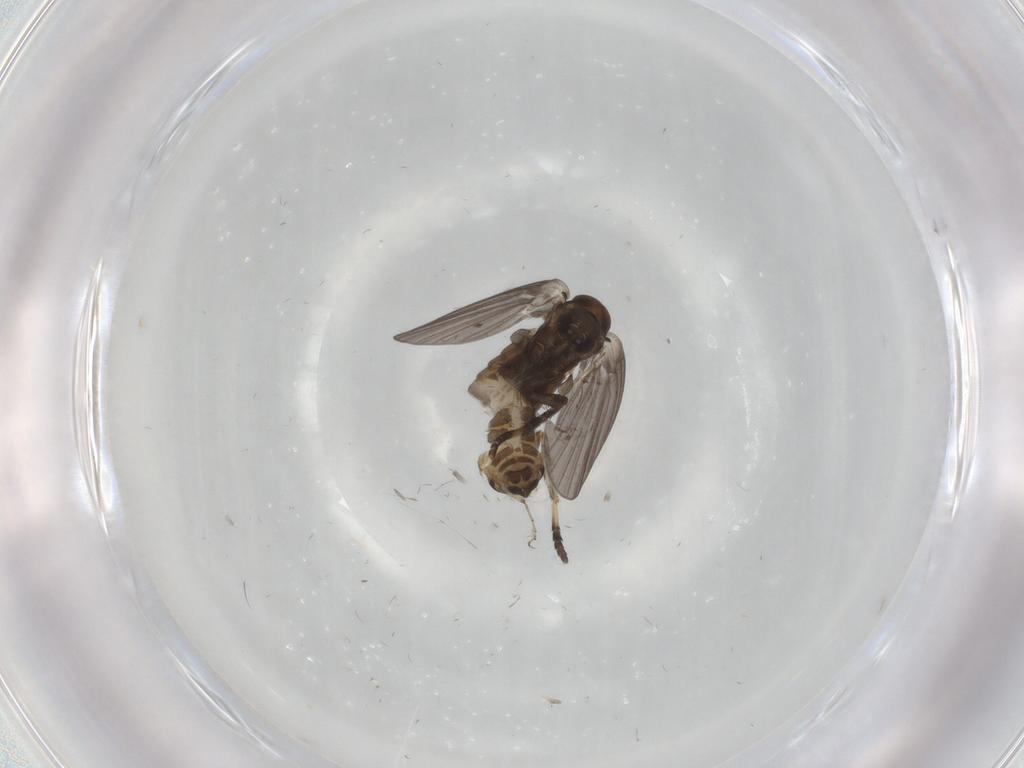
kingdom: Animalia
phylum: Arthropoda
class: Insecta
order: Diptera
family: Psychodidae
